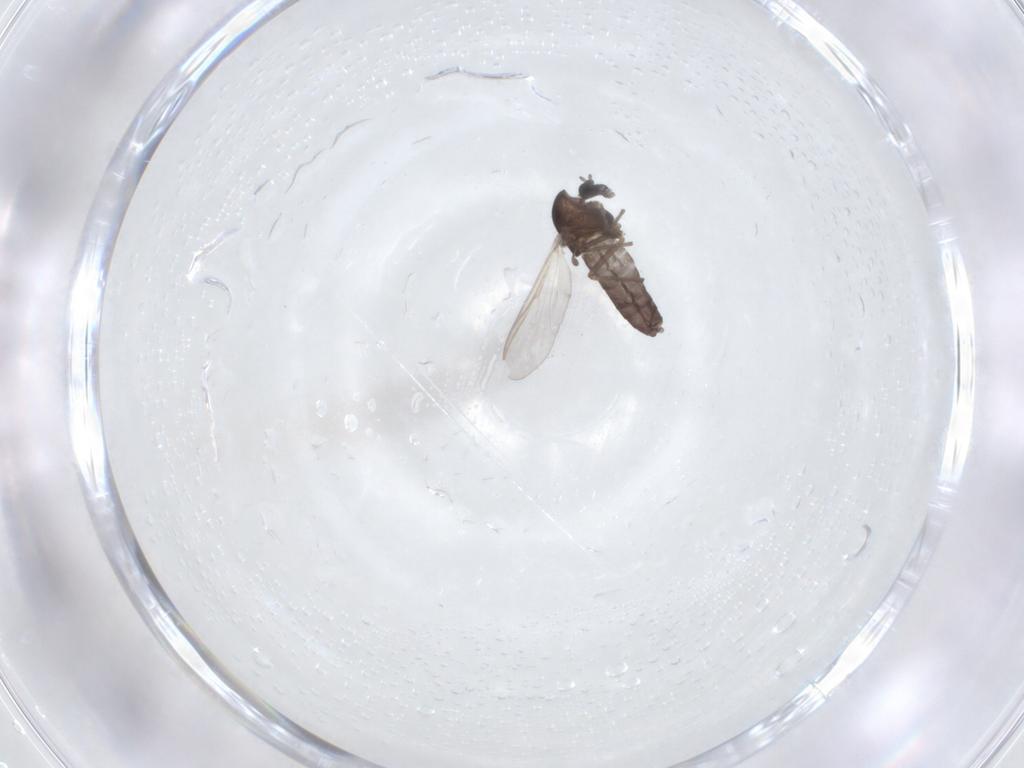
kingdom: Animalia
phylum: Arthropoda
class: Insecta
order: Diptera
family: Chironomidae
